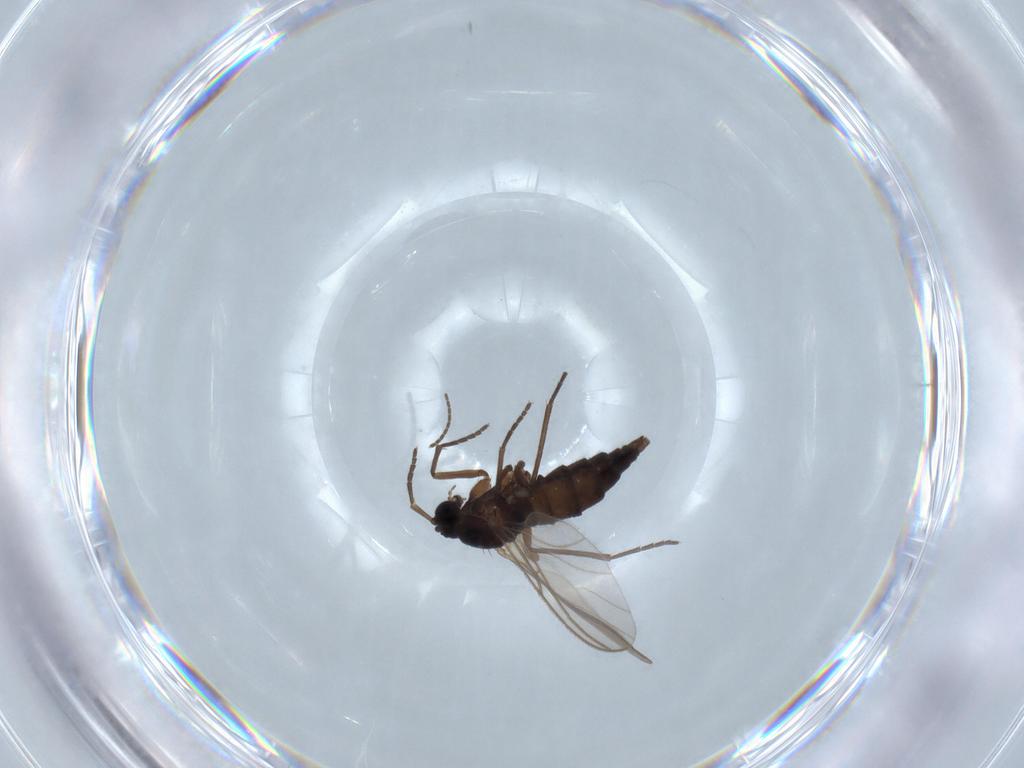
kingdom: Animalia
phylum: Arthropoda
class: Insecta
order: Diptera
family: Sciaridae
